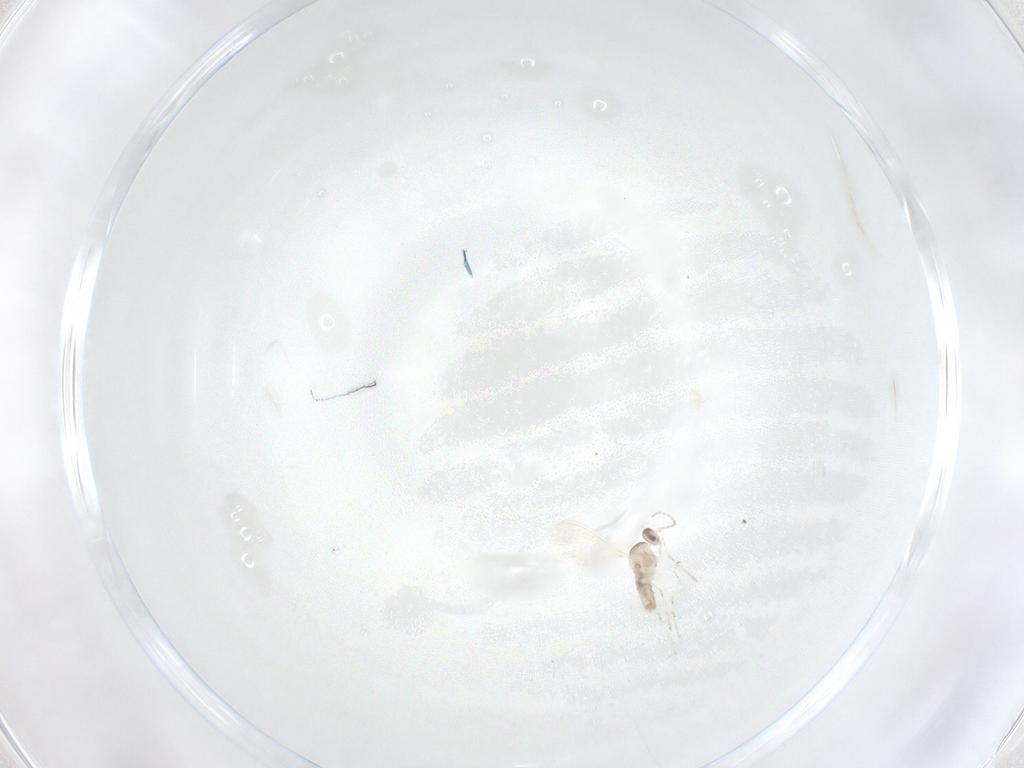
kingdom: Animalia
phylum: Arthropoda
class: Insecta
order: Diptera
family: Cecidomyiidae
